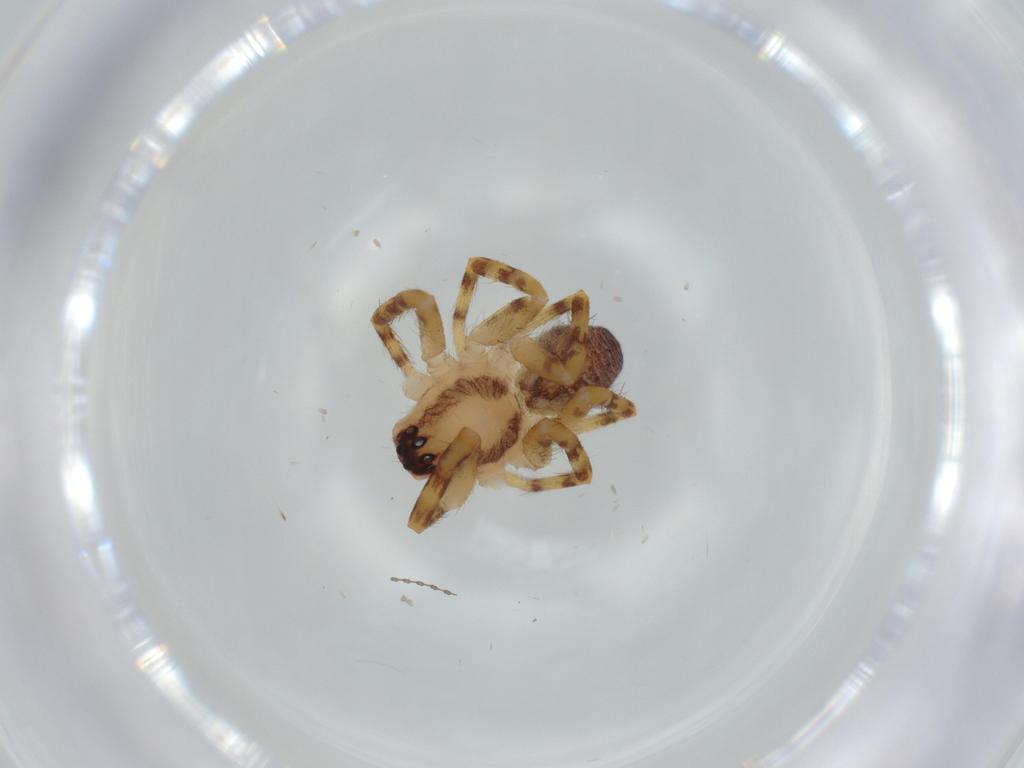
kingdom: Animalia
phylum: Arthropoda
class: Arachnida
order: Araneae
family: Corinnidae
